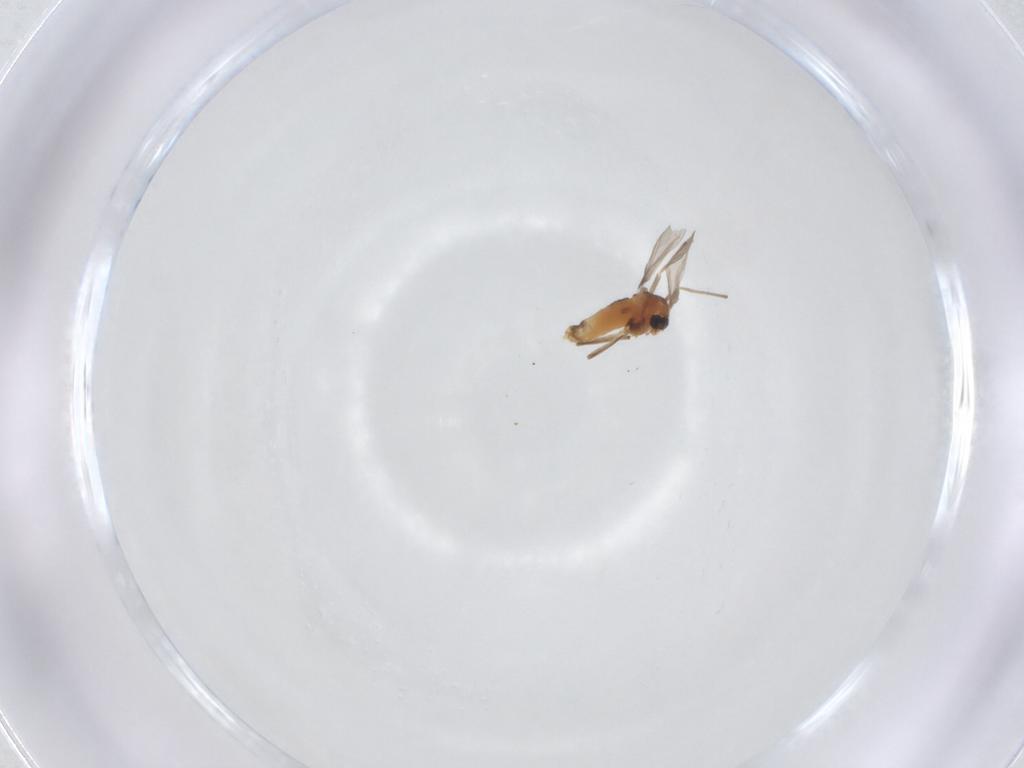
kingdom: Animalia
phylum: Arthropoda
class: Insecta
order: Diptera
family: Chironomidae
